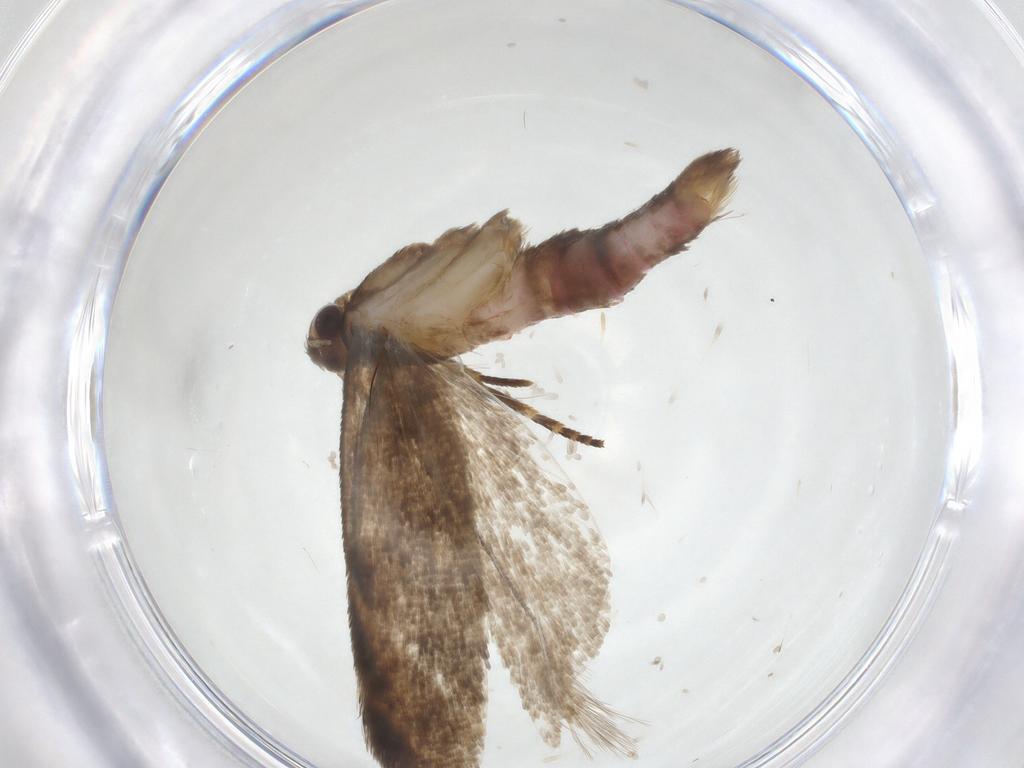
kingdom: Animalia
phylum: Arthropoda
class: Insecta
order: Lepidoptera
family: Gelechiidae
